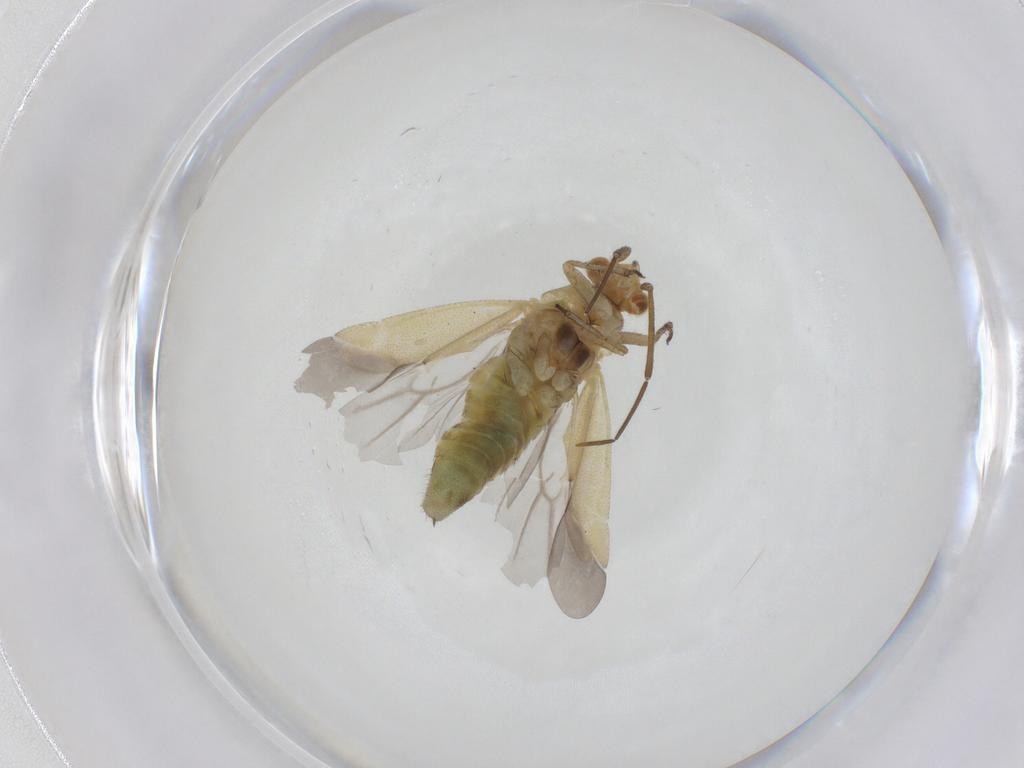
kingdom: Animalia
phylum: Arthropoda
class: Insecta
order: Hemiptera
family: Miridae
